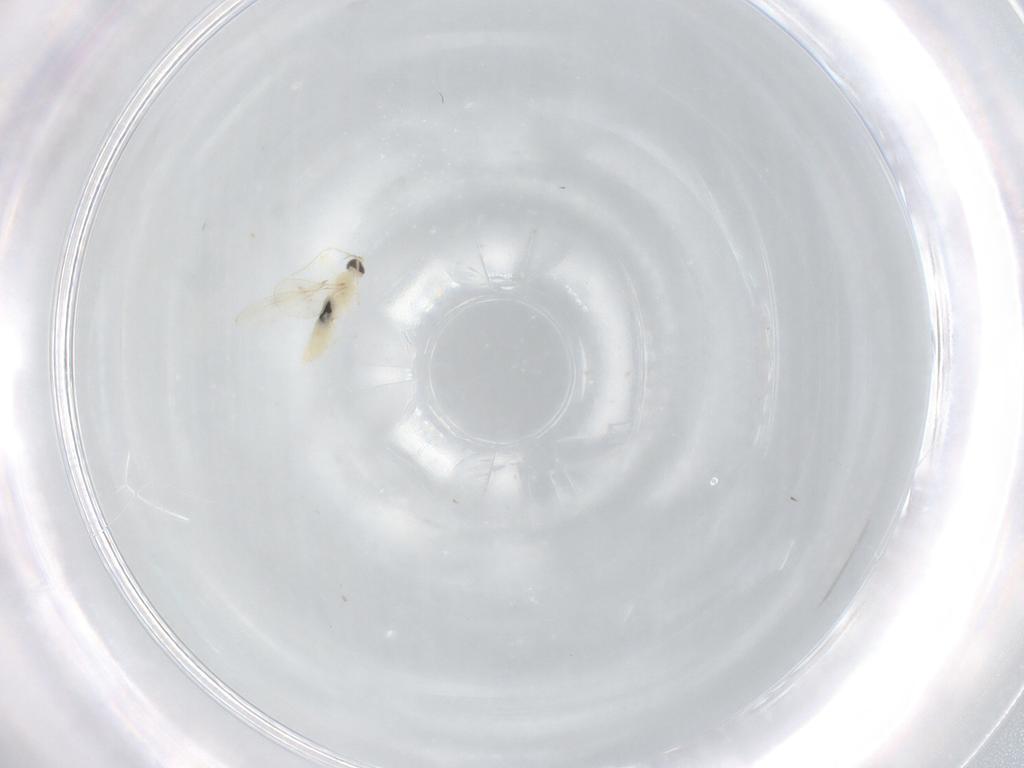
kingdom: Animalia
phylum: Arthropoda
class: Insecta
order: Diptera
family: Cecidomyiidae
